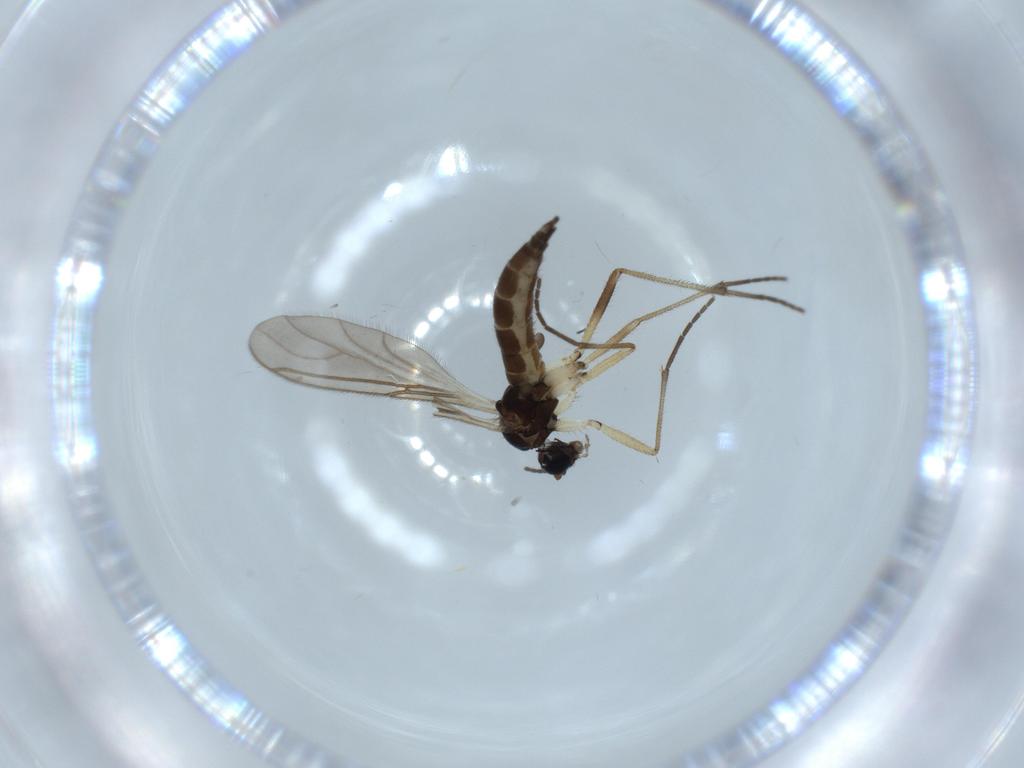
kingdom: Animalia
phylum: Arthropoda
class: Insecta
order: Diptera
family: Sciaridae
